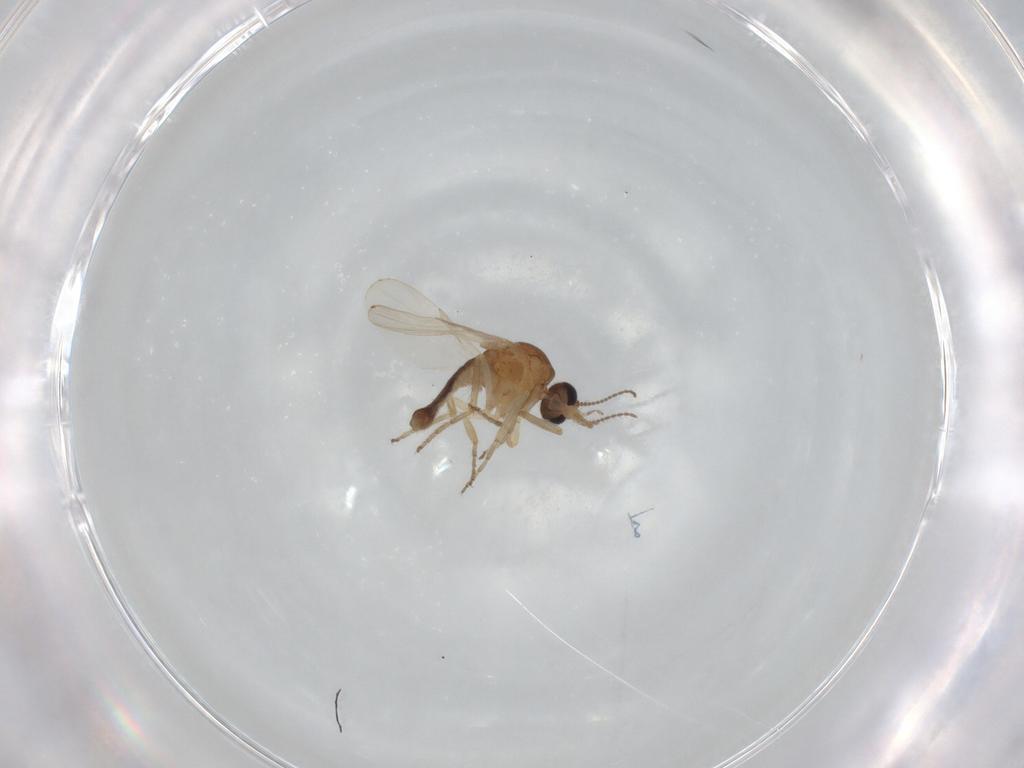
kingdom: Animalia
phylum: Arthropoda
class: Insecta
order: Diptera
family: Ceratopogonidae
